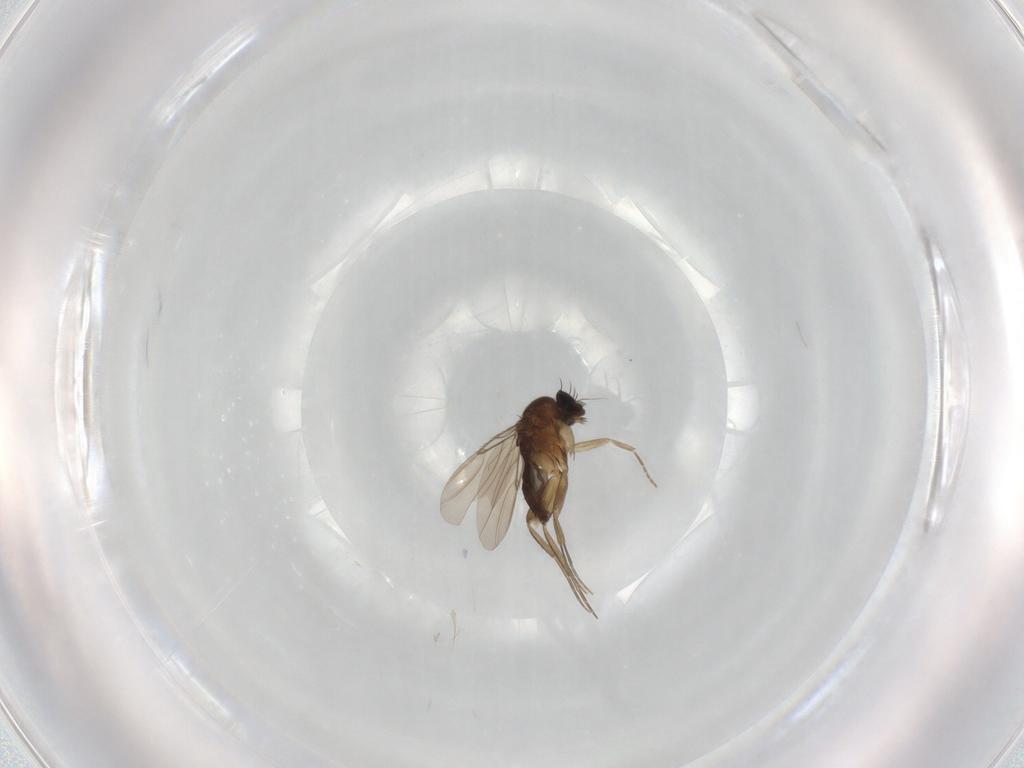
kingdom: Animalia
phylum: Arthropoda
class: Insecta
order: Diptera
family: Phoridae
